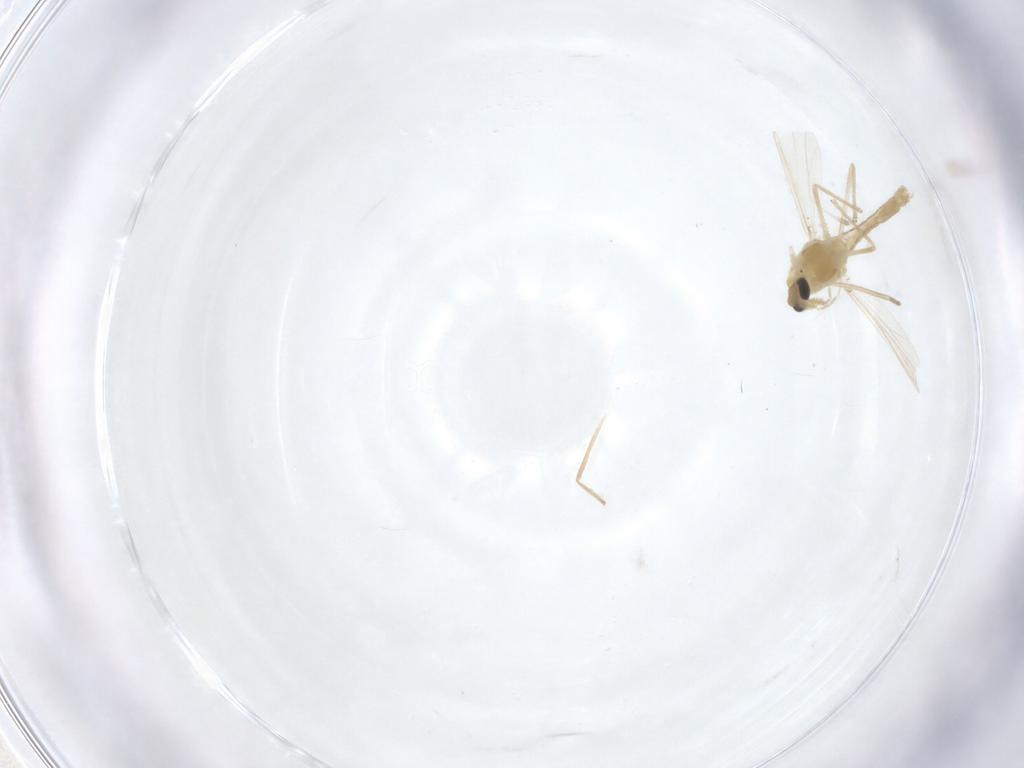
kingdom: Animalia
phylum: Arthropoda
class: Insecta
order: Diptera
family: Chironomidae
